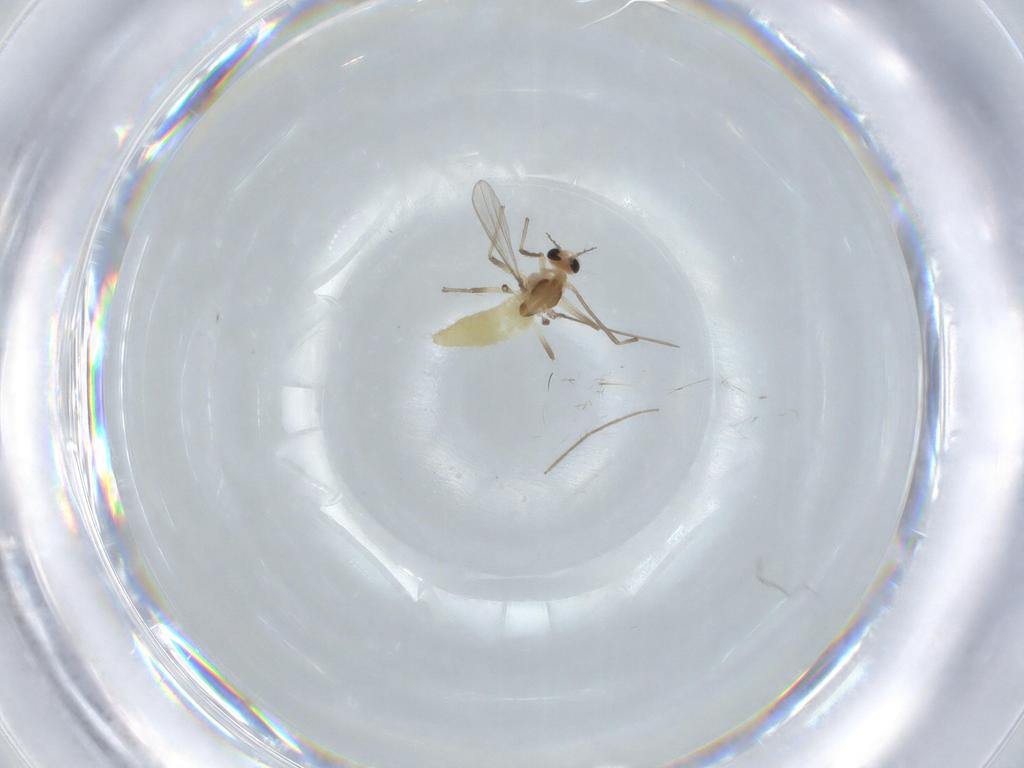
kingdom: Animalia
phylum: Arthropoda
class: Insecta
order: Diptera
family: Chironomidae
